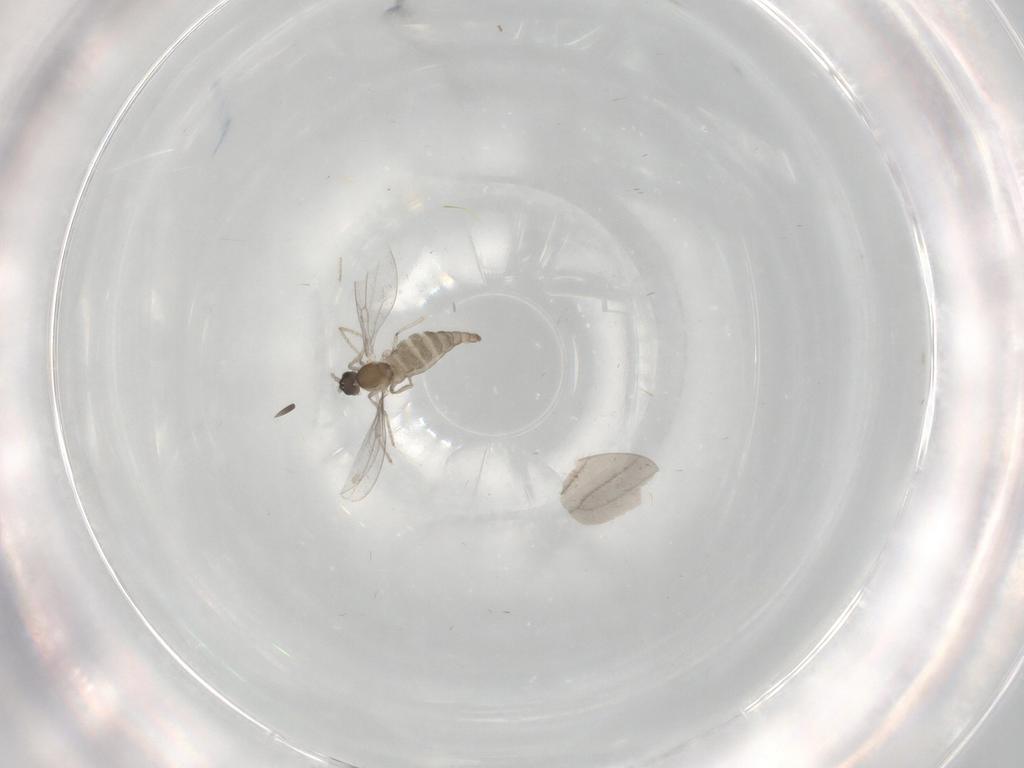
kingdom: Animalia
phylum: Arthropoda
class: Insecta
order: Diptera
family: Cecidomyiidae
